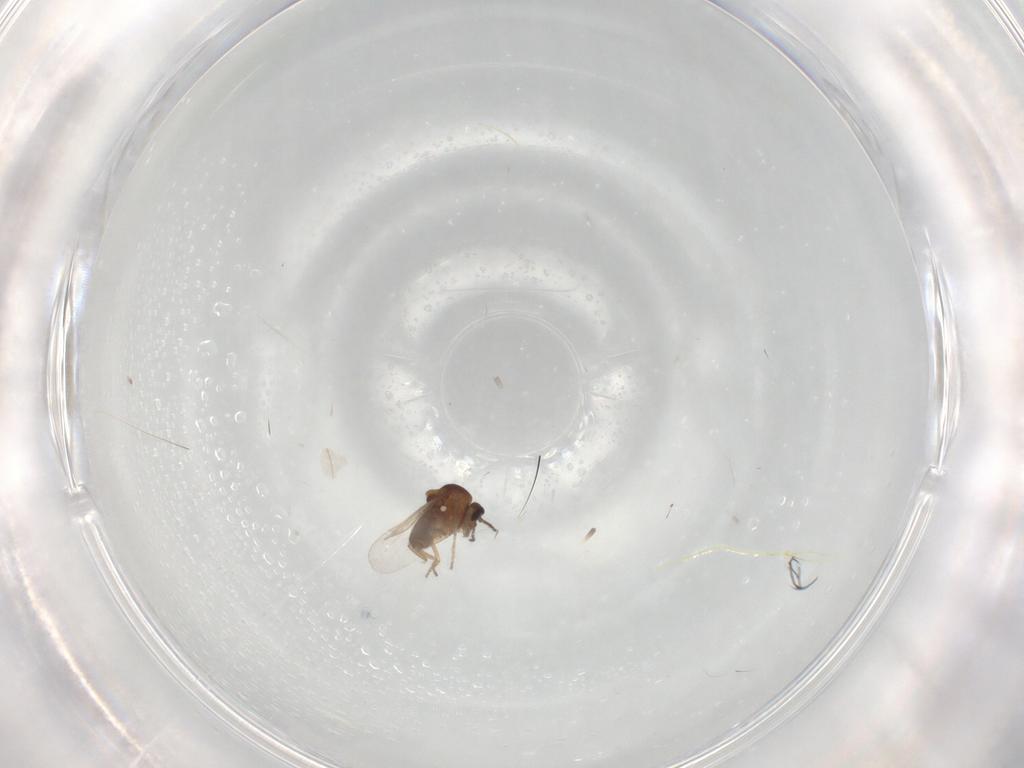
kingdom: Animalia
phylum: Arthropoda
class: Insecta
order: Diptera
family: Ceratopogonidae
